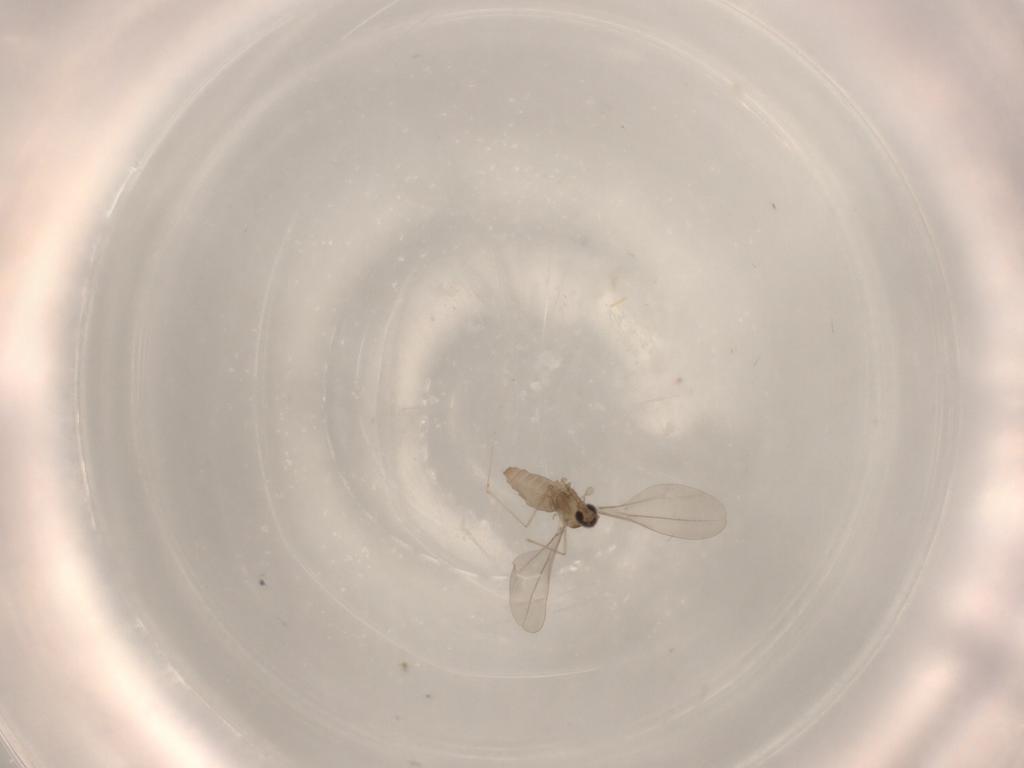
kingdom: Animalia
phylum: Arthropoda
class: Insecta
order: Diptera
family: Cecidomyiidae
